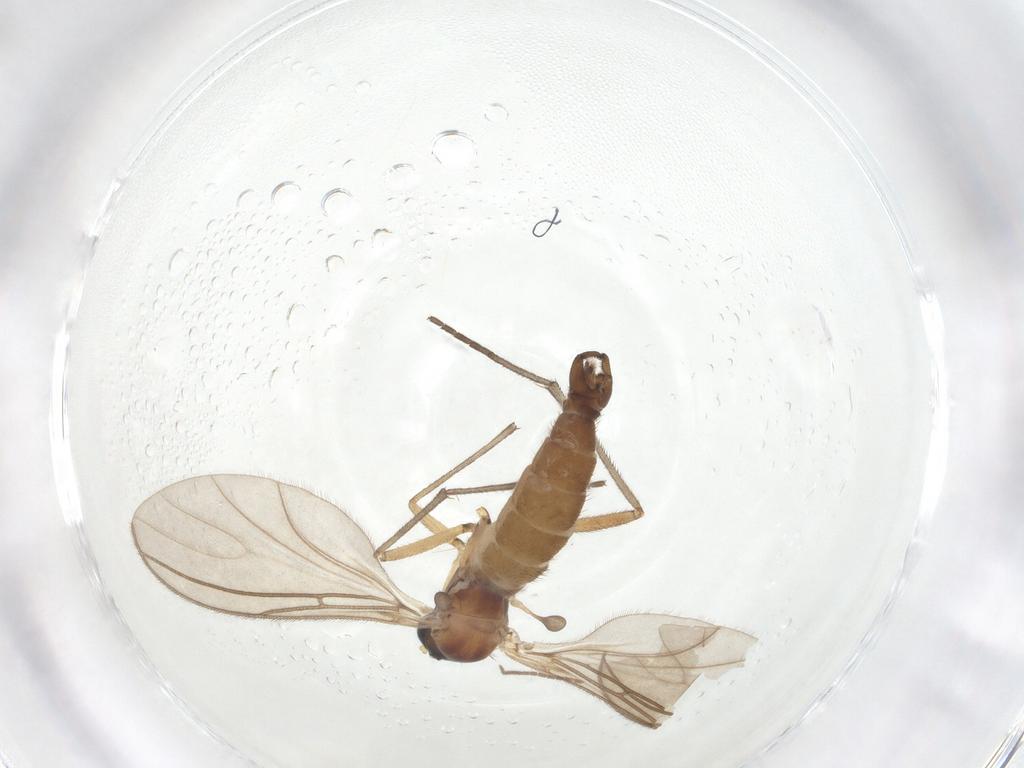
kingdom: Animalia
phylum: Arthropoda
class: Insecta
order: Diptera
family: Sciaridae
